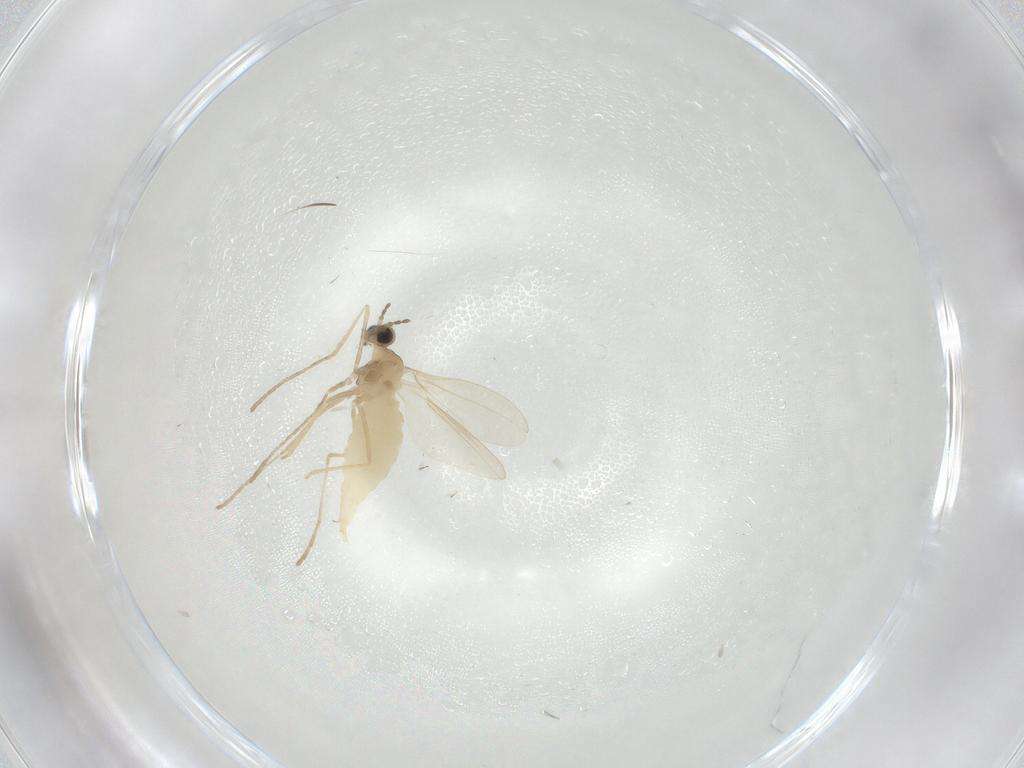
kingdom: Animalia
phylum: Arthropoda
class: Insecta
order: Diptera
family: Cecidomyiidae
